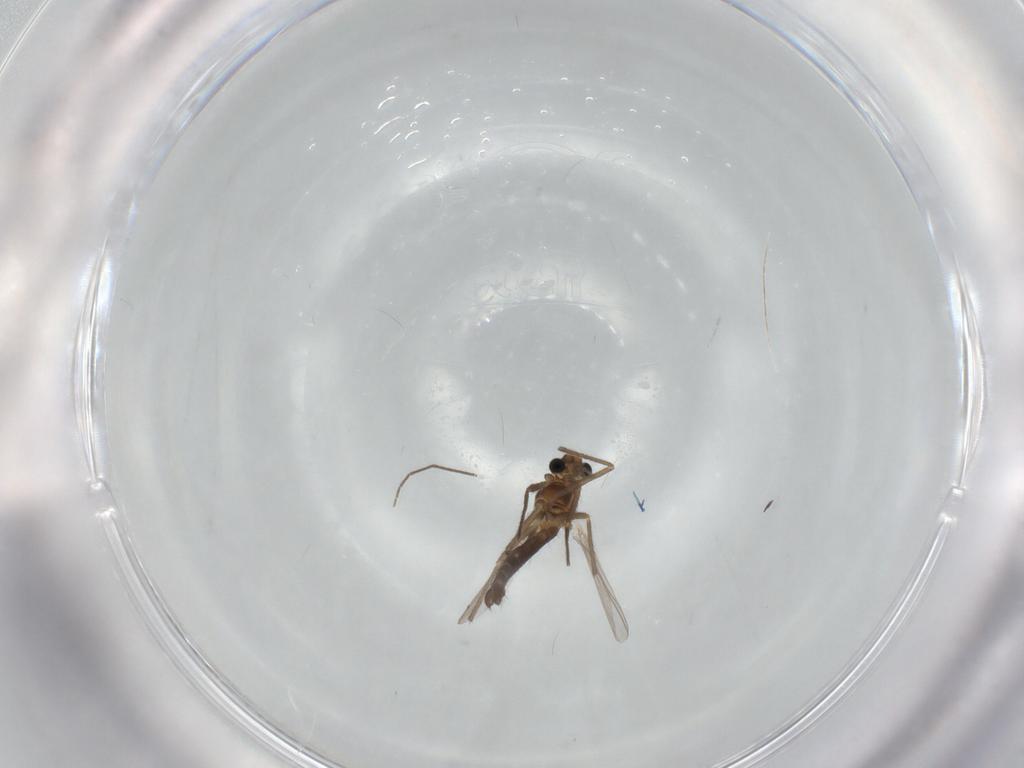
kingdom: Animalia
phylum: Arthropoda
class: Insecta
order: Diptera
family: Chironomidae
